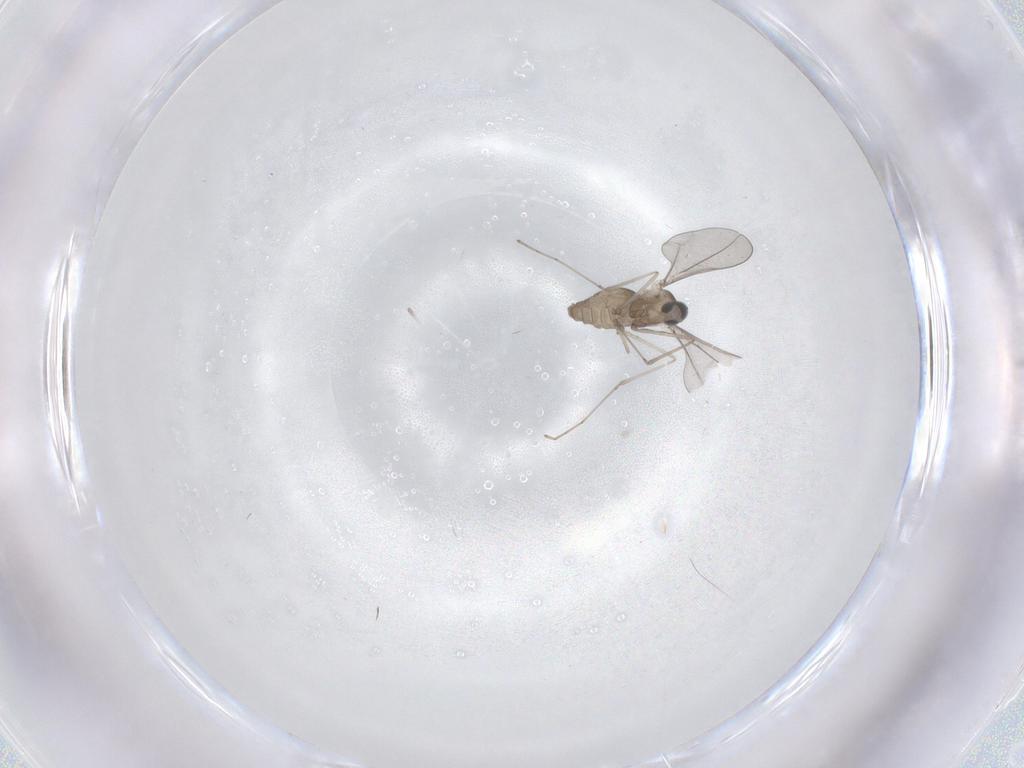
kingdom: Animalia
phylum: Arthropoda
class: Insecta
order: Diptera
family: Cecidomyiidae
